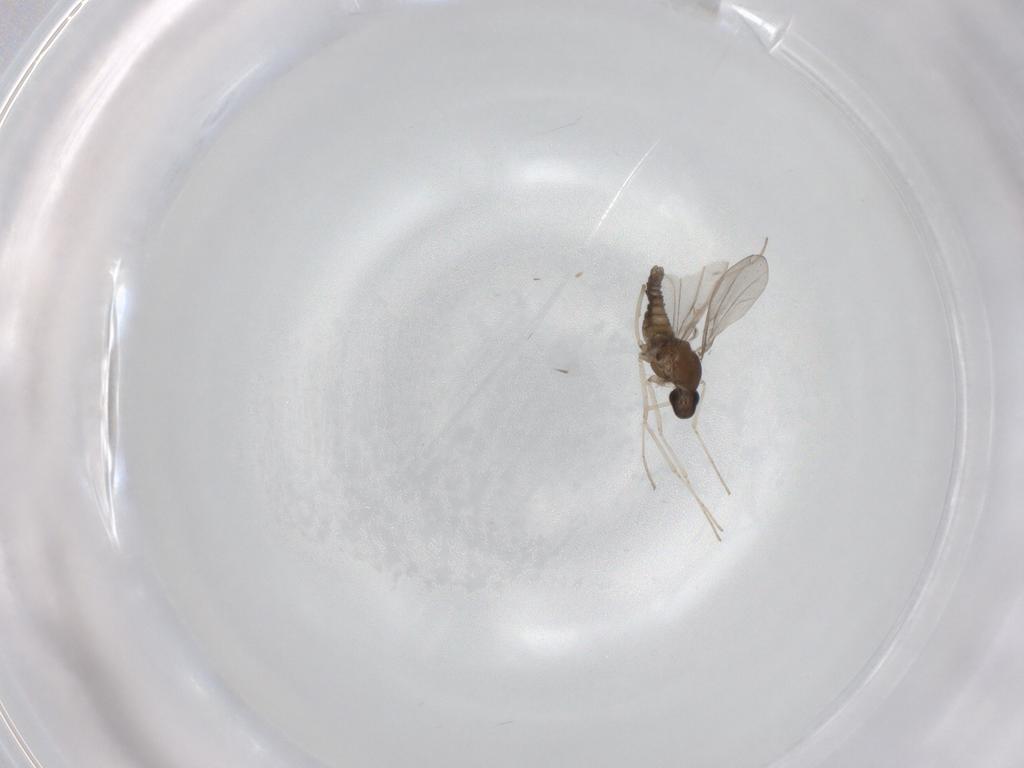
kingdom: Animalia
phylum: Arthropoda
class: Insecta
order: Diptera
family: Cecidomyiidae
